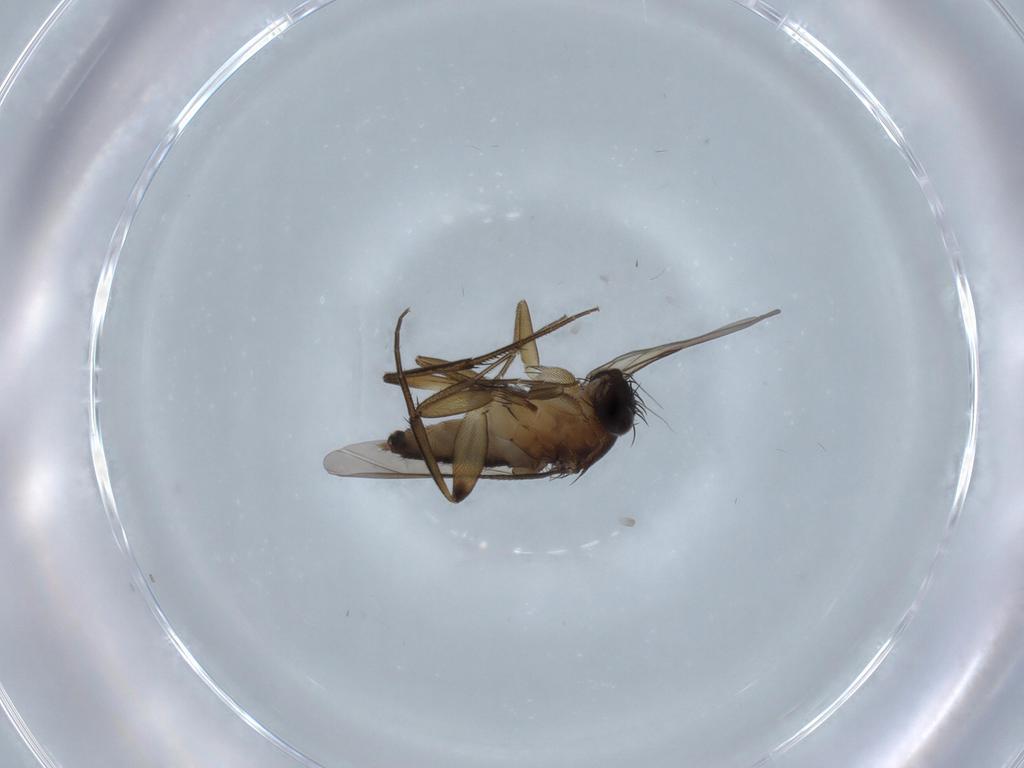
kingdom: Animalia
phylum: Arthropoda
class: Insecta
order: Diptera
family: Phoridae
